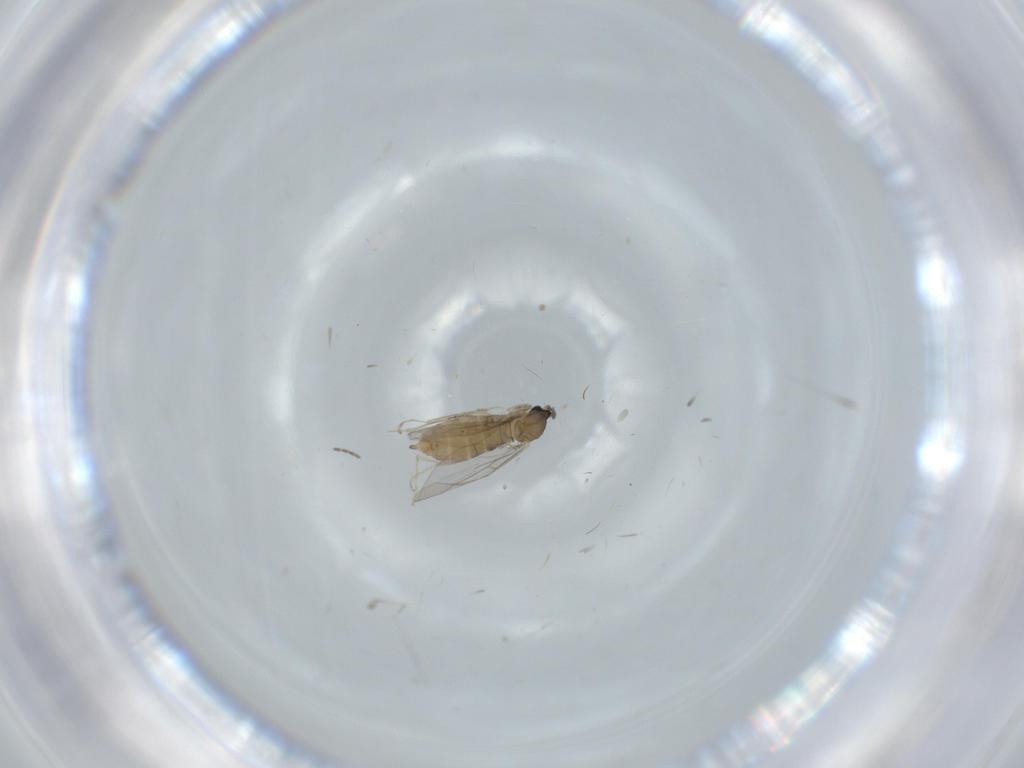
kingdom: Animalia
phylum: Arthropoda
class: Insecta
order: Diptera
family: Cecidomyiidae
